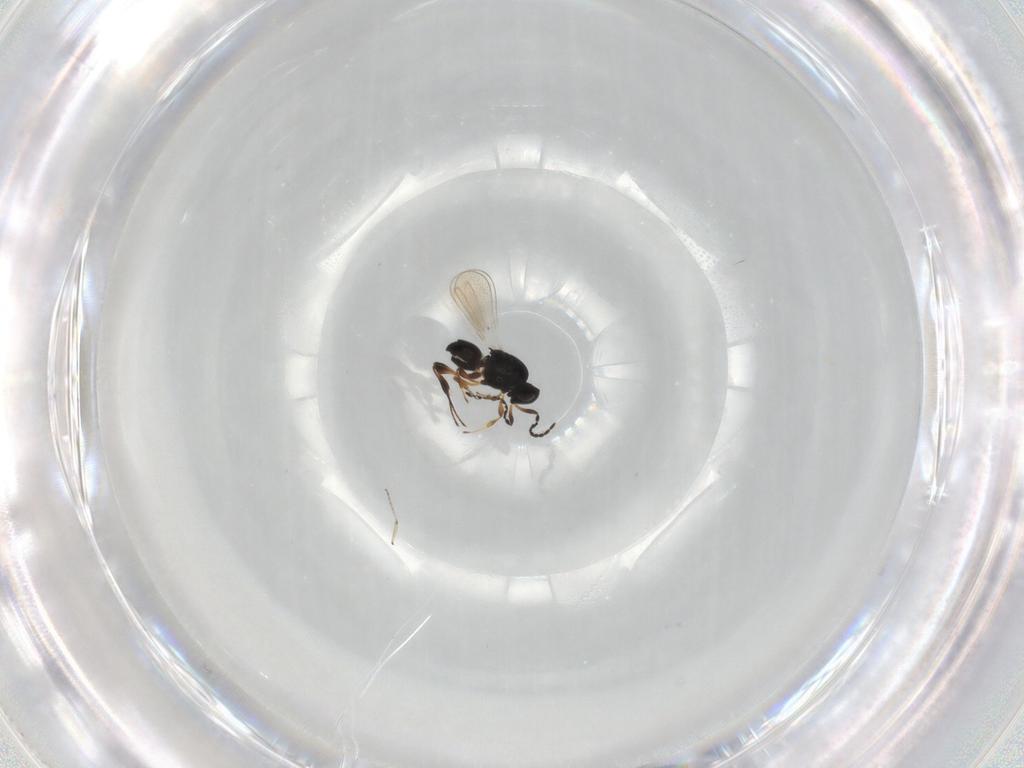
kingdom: Animalia
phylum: Arthropoda
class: Insecta
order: Hymenoptera
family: Platygastridae
